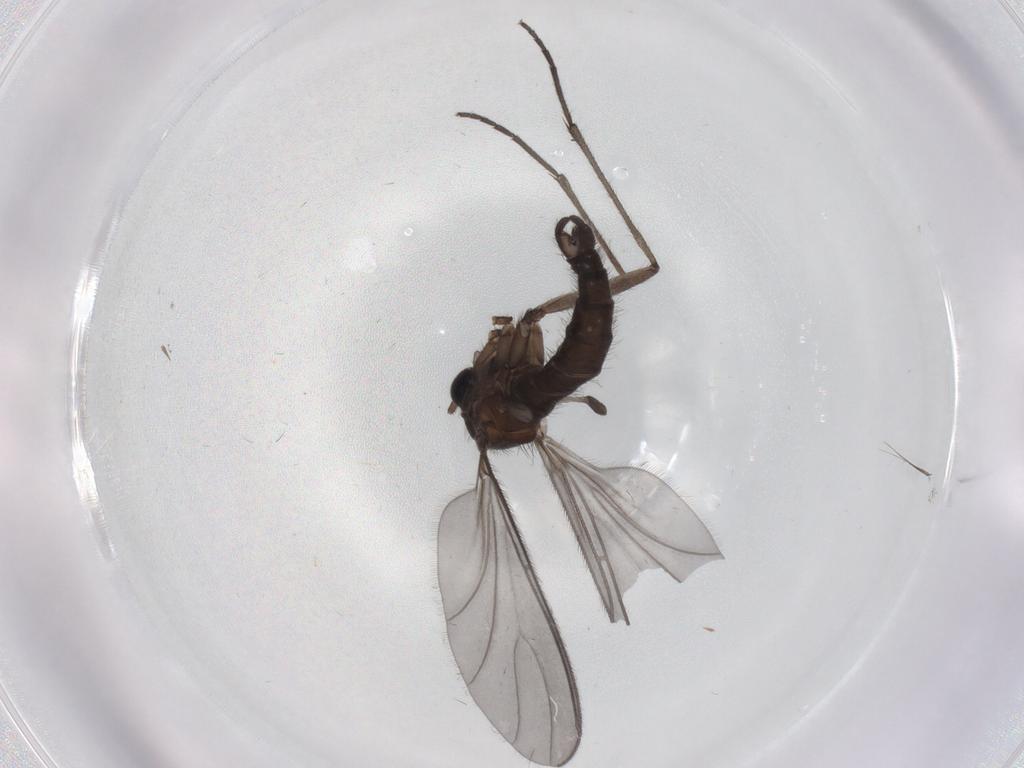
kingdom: Animalia
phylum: Arthropoda
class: Insecta
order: Diptera
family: Sciaridae
